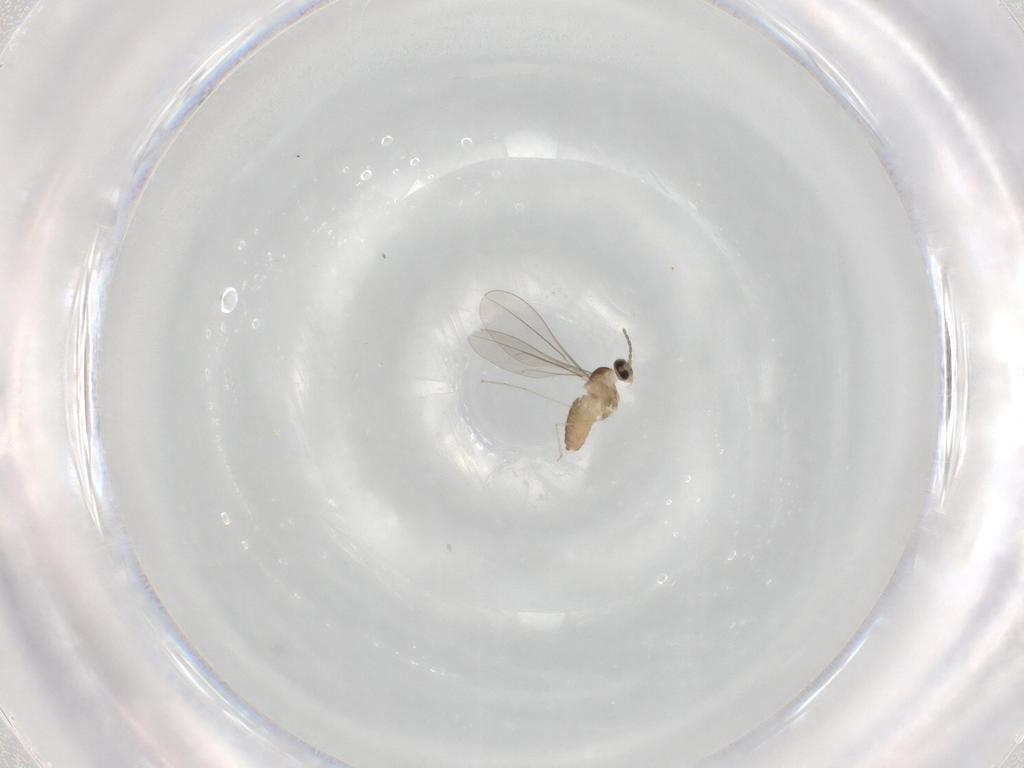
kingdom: Animalia
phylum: Arthropoda
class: Insecta
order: Diptera
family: Cecidomyiidae
